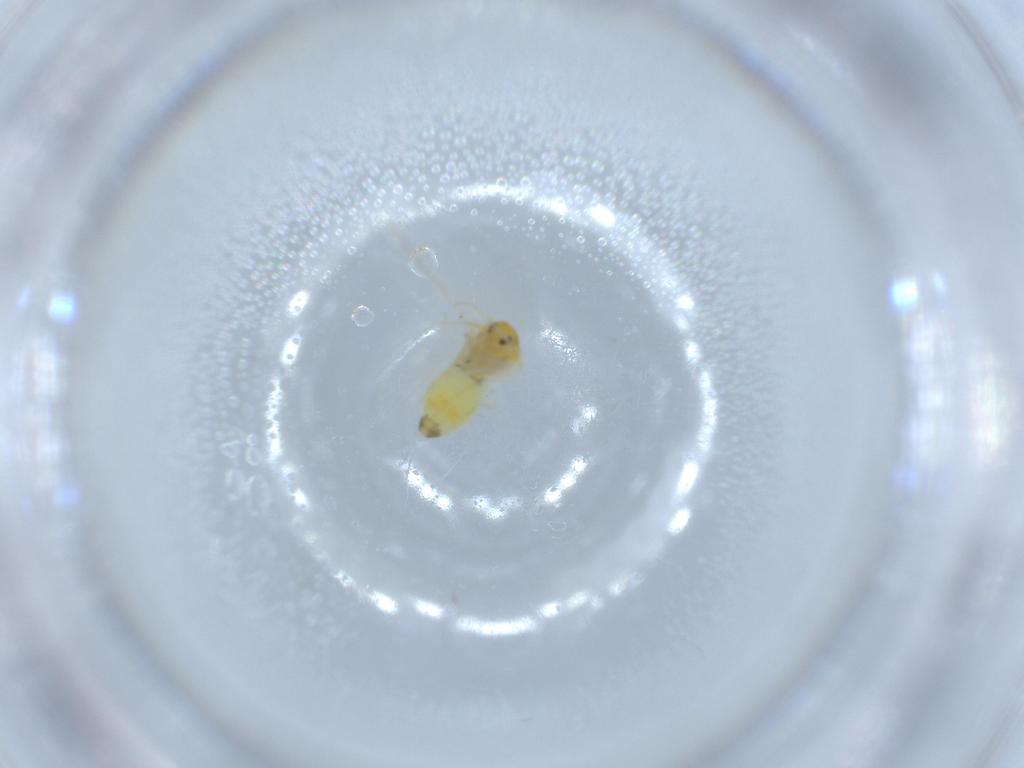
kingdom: Animalia
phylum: Arthropoda
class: Insecta
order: Hemiptera
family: Aleyrodidae
